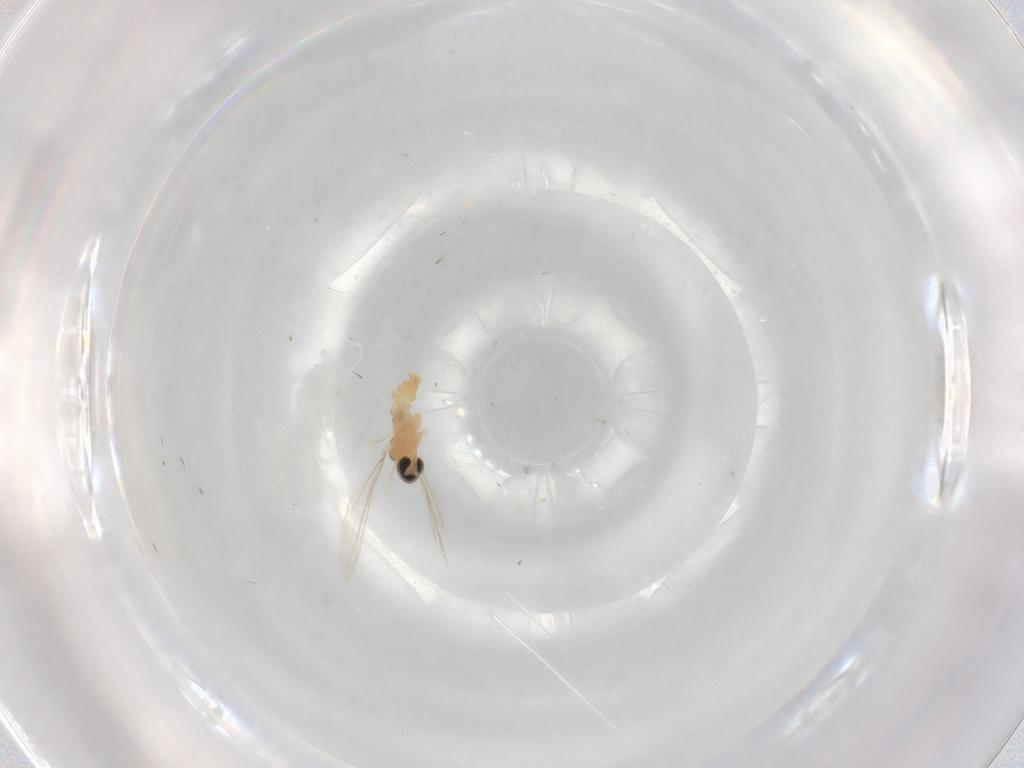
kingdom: Animalia
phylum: Arthropoda
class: Insecta
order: Diptera
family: Cecidomyiidae
